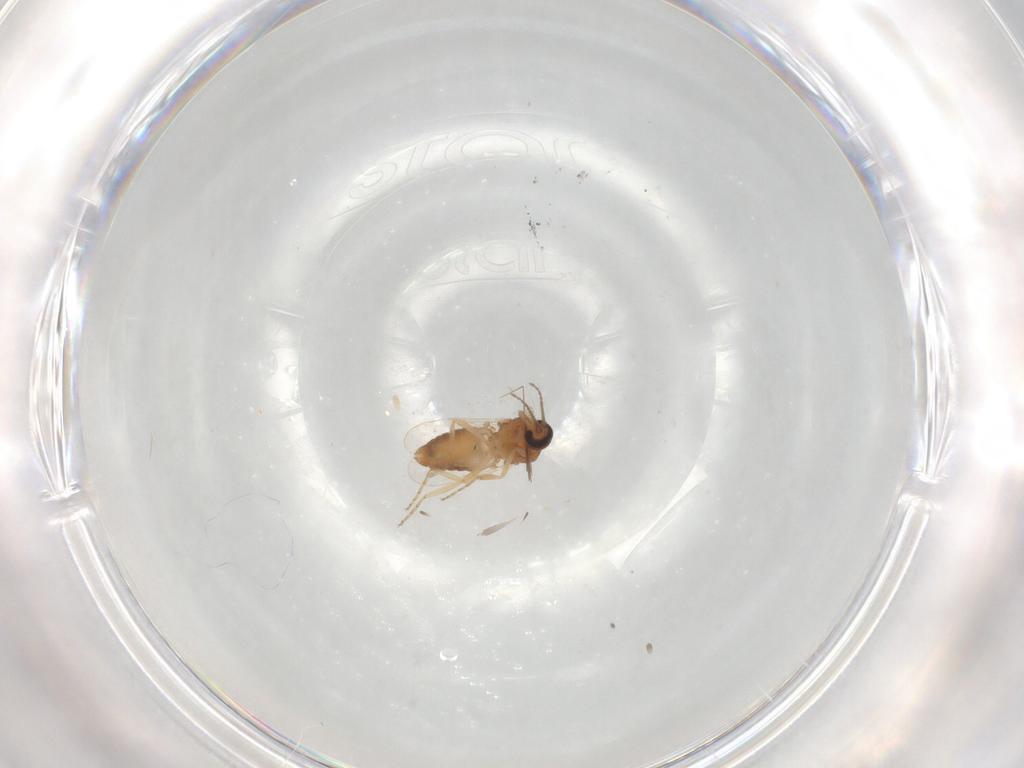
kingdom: Animalia
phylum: Arthropoda
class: Insecta
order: Diptera
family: Ceratopogonidae
